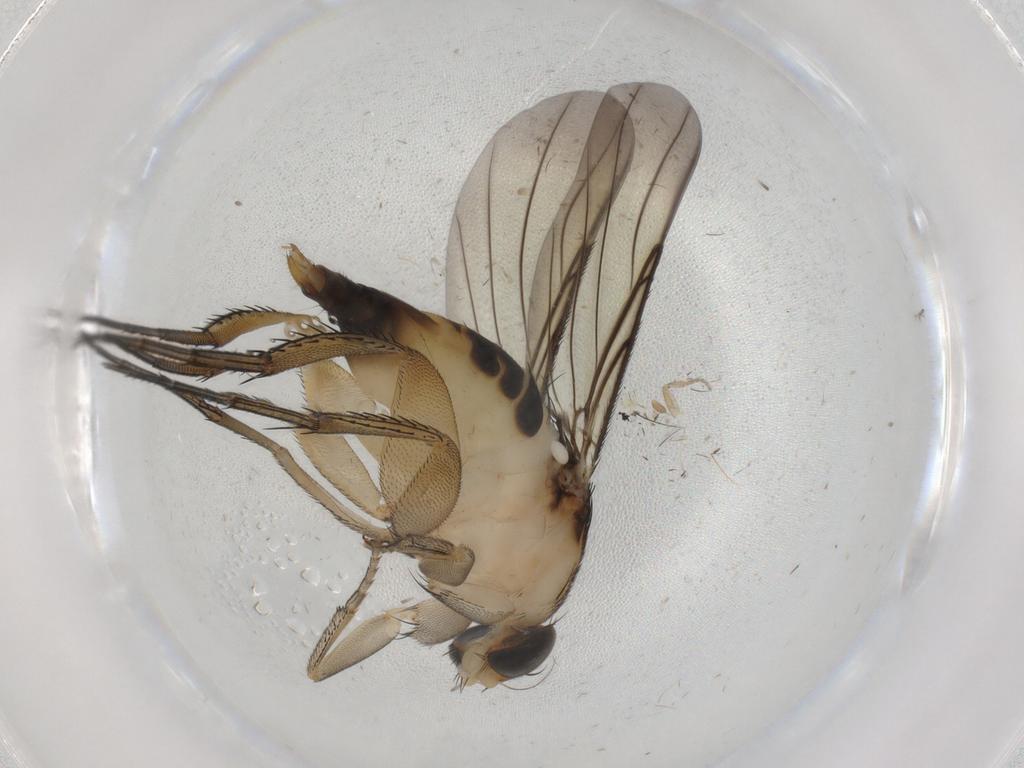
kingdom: Animalia
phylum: Arthropoda
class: Insecta
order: Diptera
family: Phoridae
